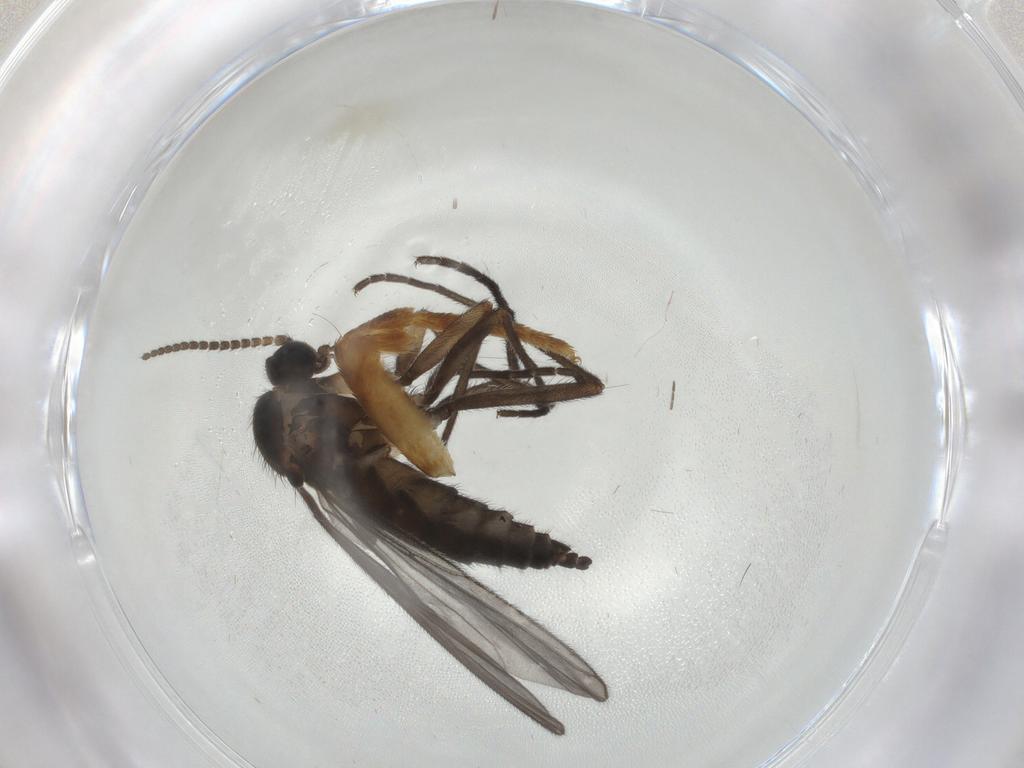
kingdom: Animalia
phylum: Arthropoda
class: Insecta
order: Diptera
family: Sciaridae
